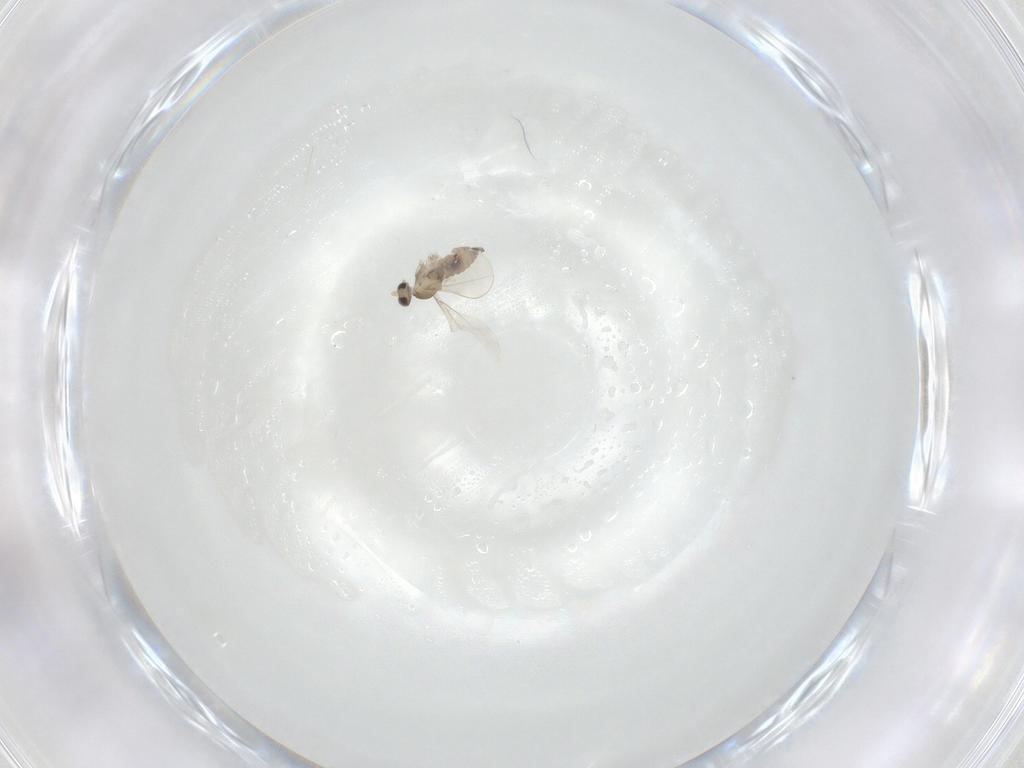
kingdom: Animalia
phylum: Arthropoda
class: Insecta
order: Diptera
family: Cecidomyiidae
